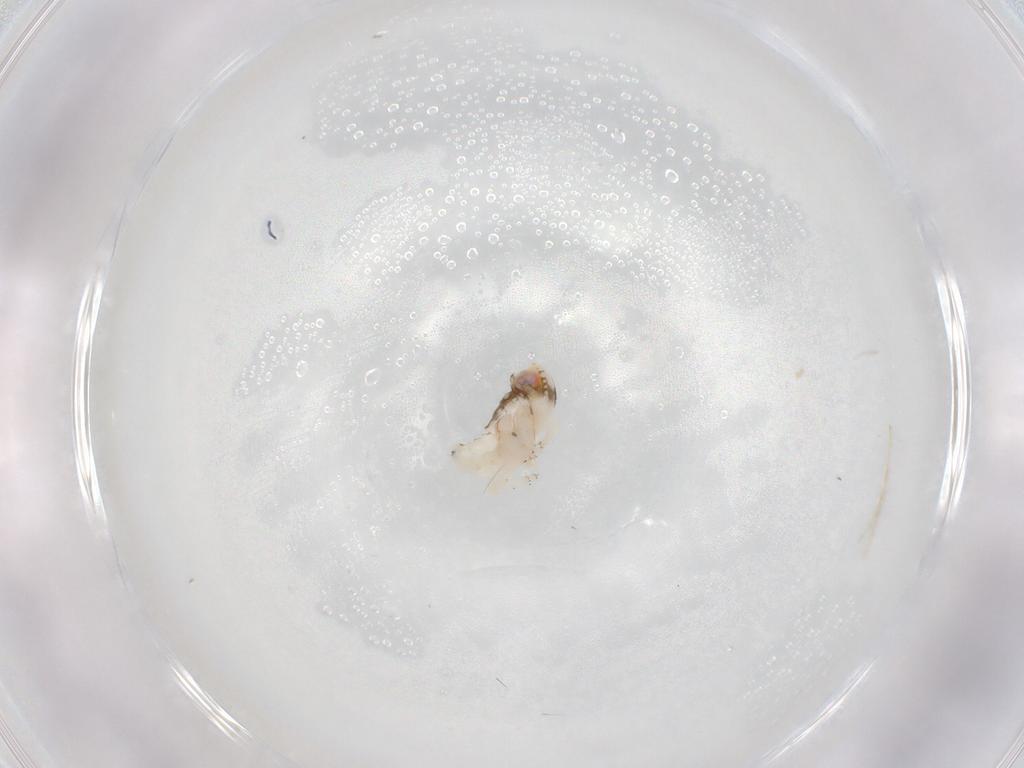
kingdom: Animalia
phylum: Arthropoda
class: Insecta
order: Hemiptera
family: Nogodinidae
